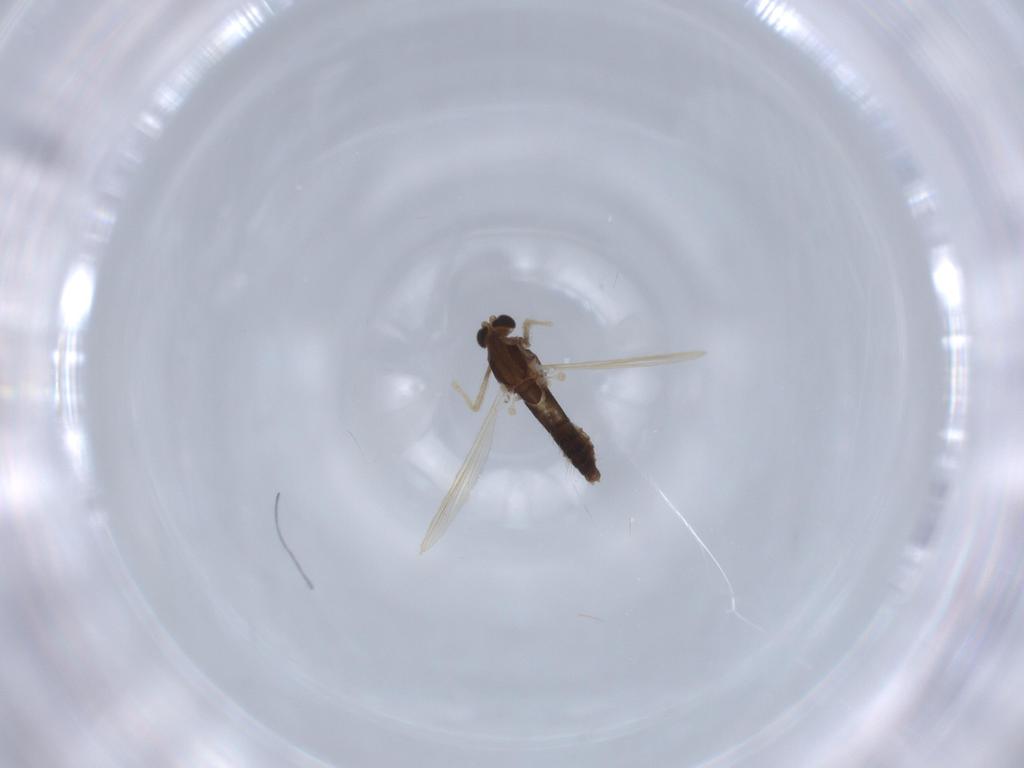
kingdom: Animalia
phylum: Arthropoda
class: Insecta
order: Diptera
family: Chironomidae
